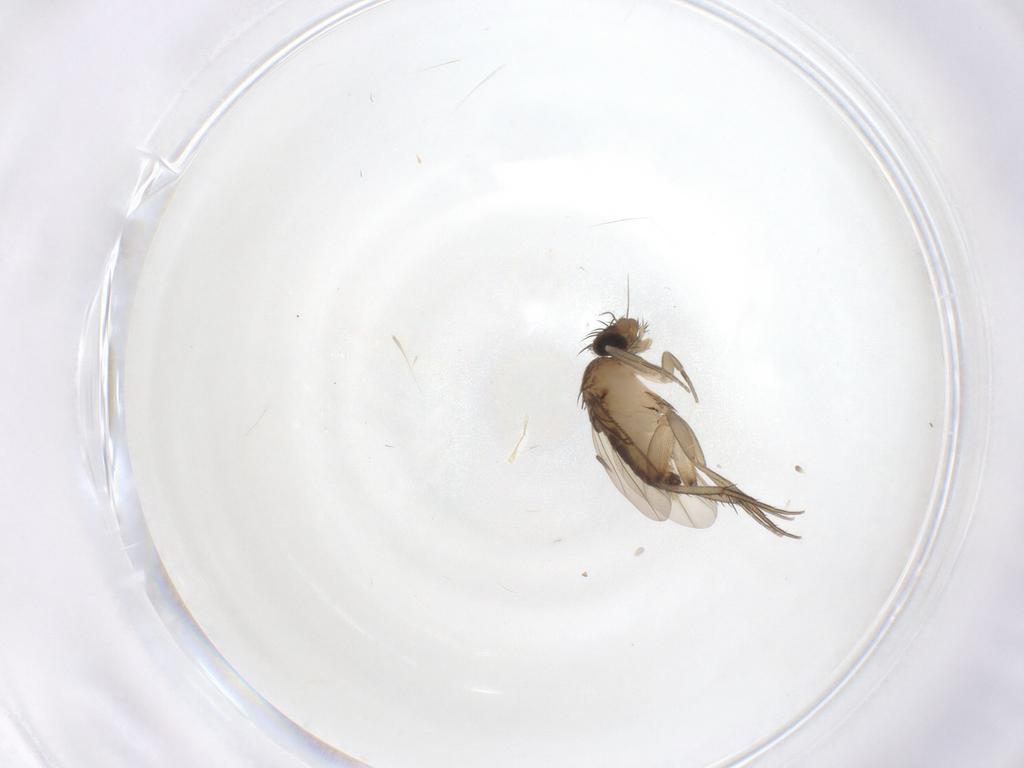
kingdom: Animalia
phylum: Arthropoda
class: Insecta
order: Diptera
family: Phoridae
